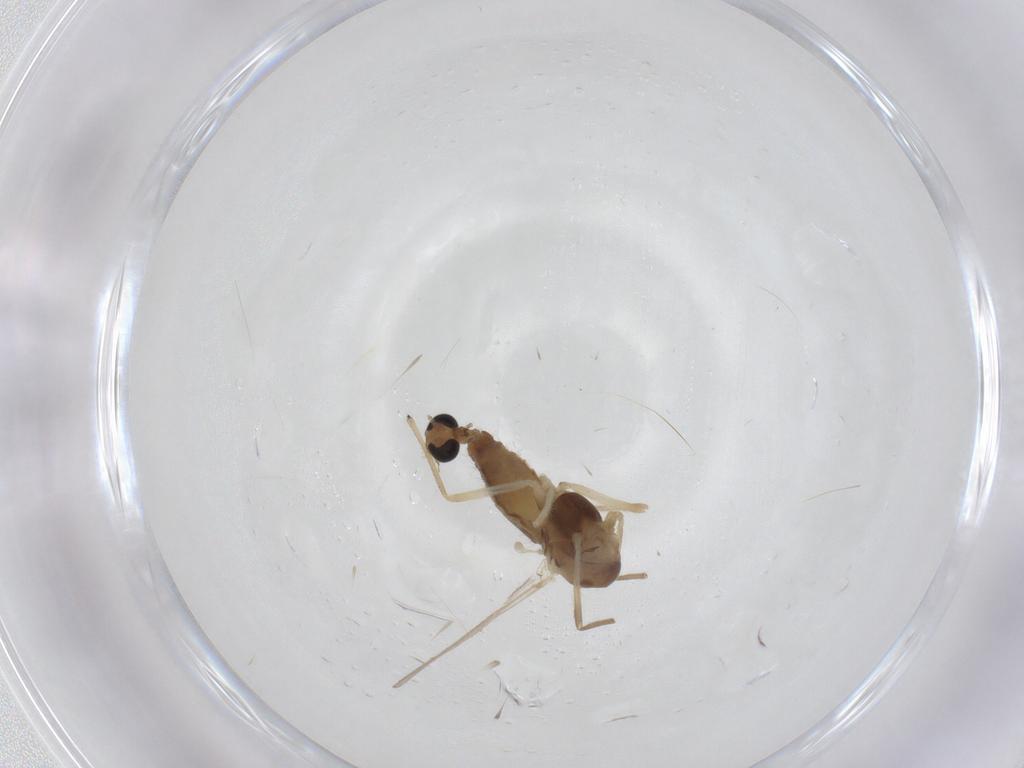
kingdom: Animalia
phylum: Arthropoda
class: Insecta
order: Diptera
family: Chironomidae
